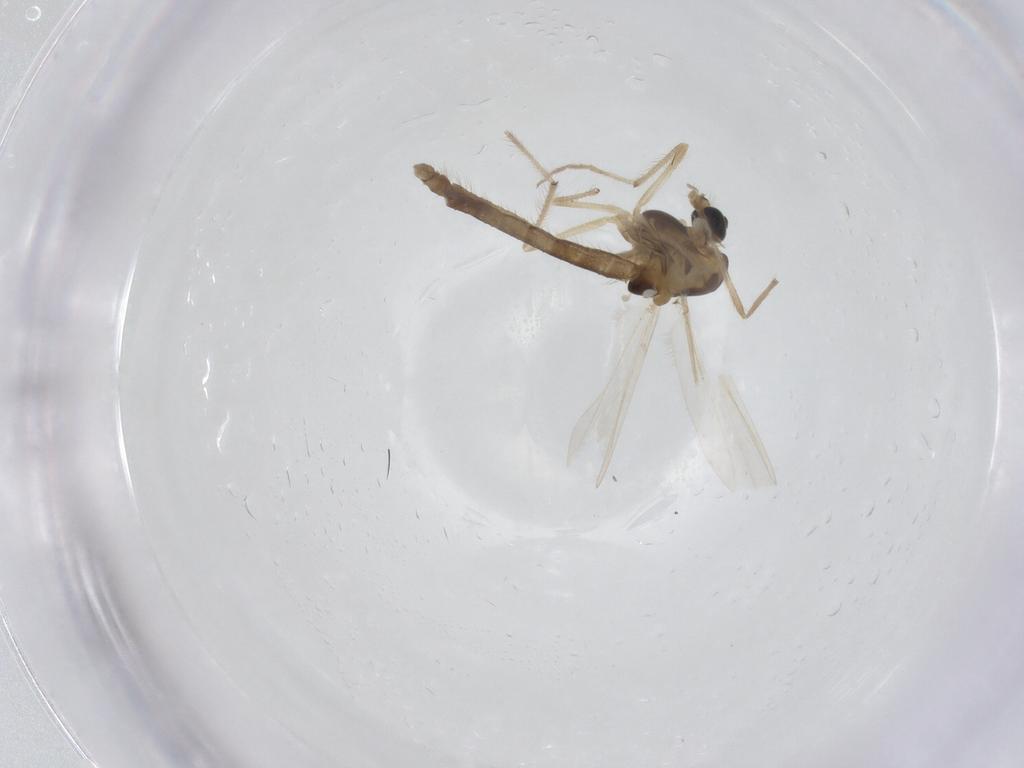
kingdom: Animalia
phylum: Arthropoda
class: Insecta
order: Diptera
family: Chironomidae
